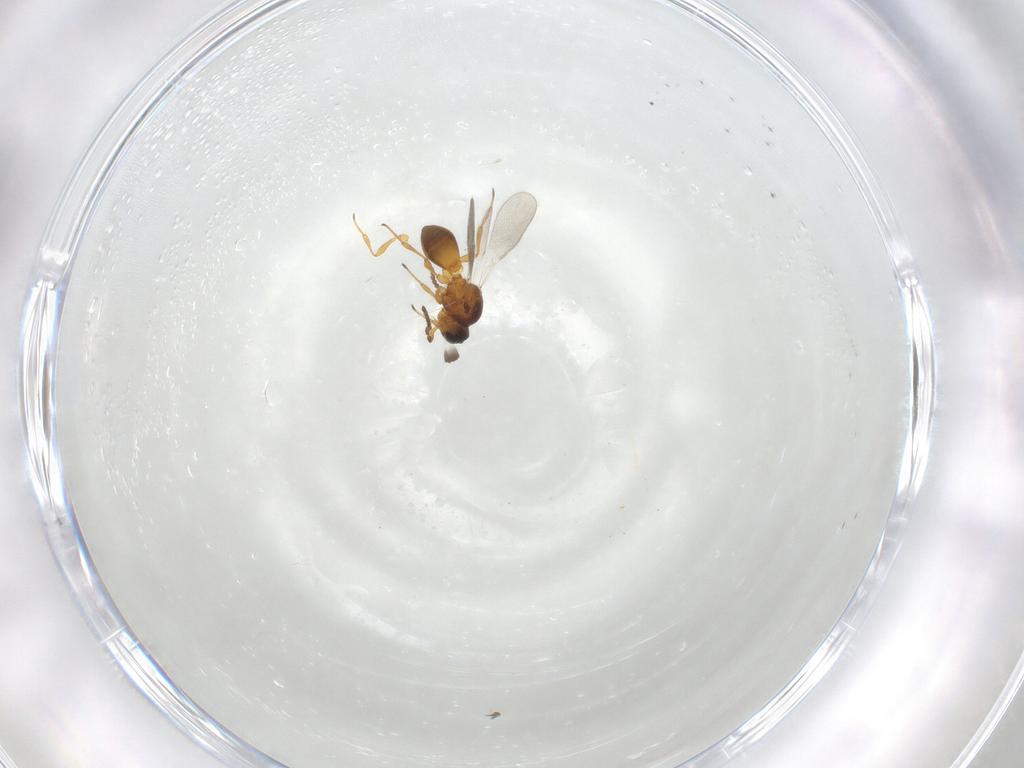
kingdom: Animalia
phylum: Arthropoda
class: Insecta
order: Hymenoptera
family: Platygastridae
